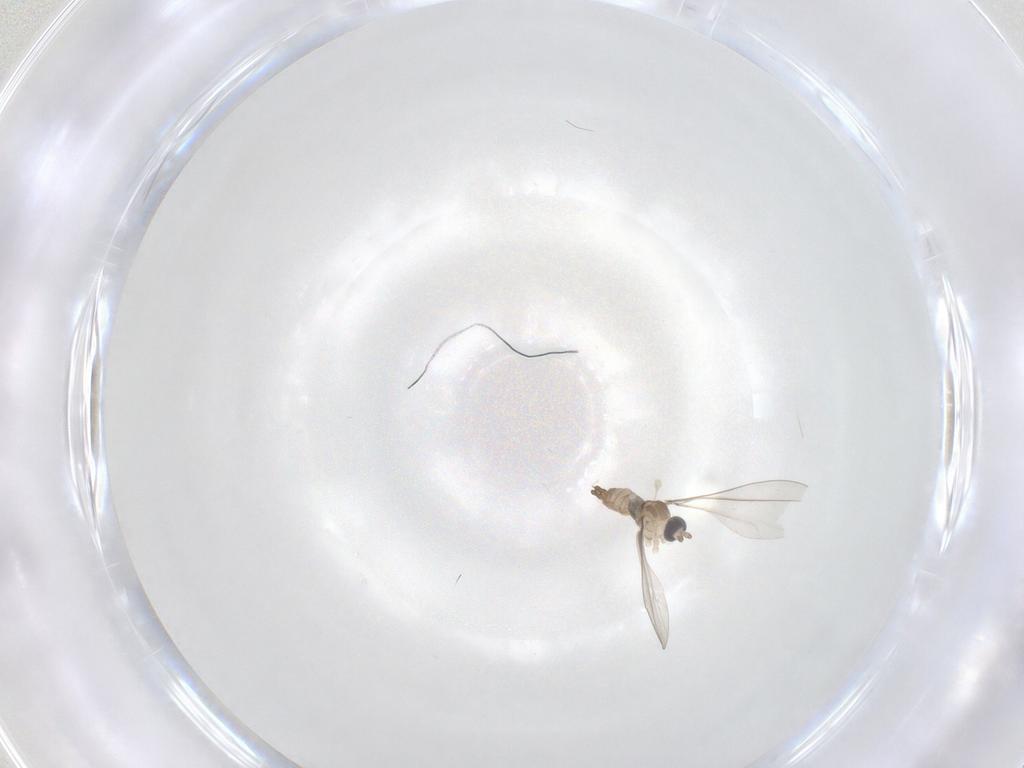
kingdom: Animalia
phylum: Arthropoda
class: Insecta
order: Diptera
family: Cecidomyiidae
